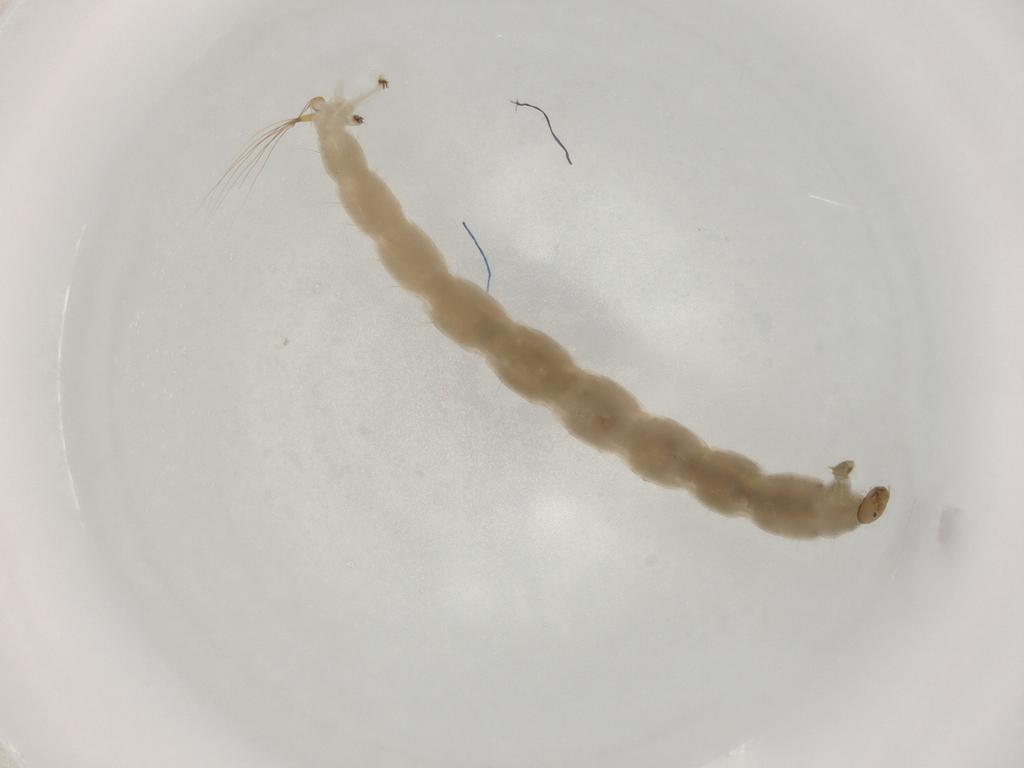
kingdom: Animalia
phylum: Arthropoda
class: Insecta
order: Diptera
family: Chironomidae
